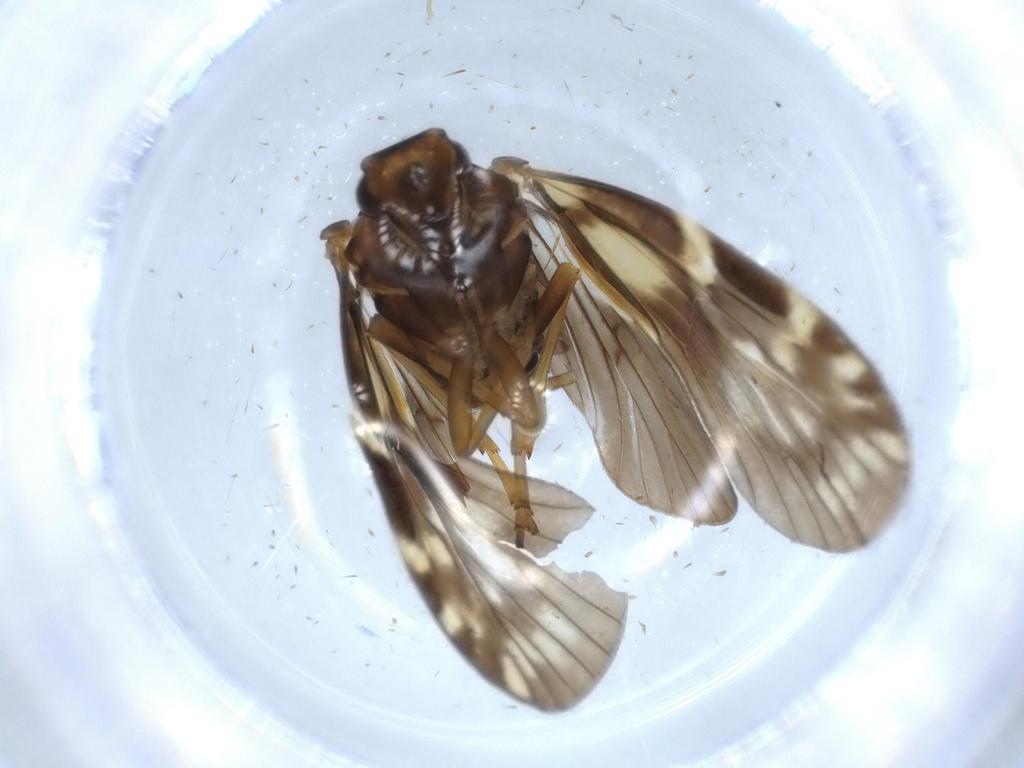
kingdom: Animalia
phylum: Arthropoda
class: Insecta
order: Hemiptera
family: Cixiidae
